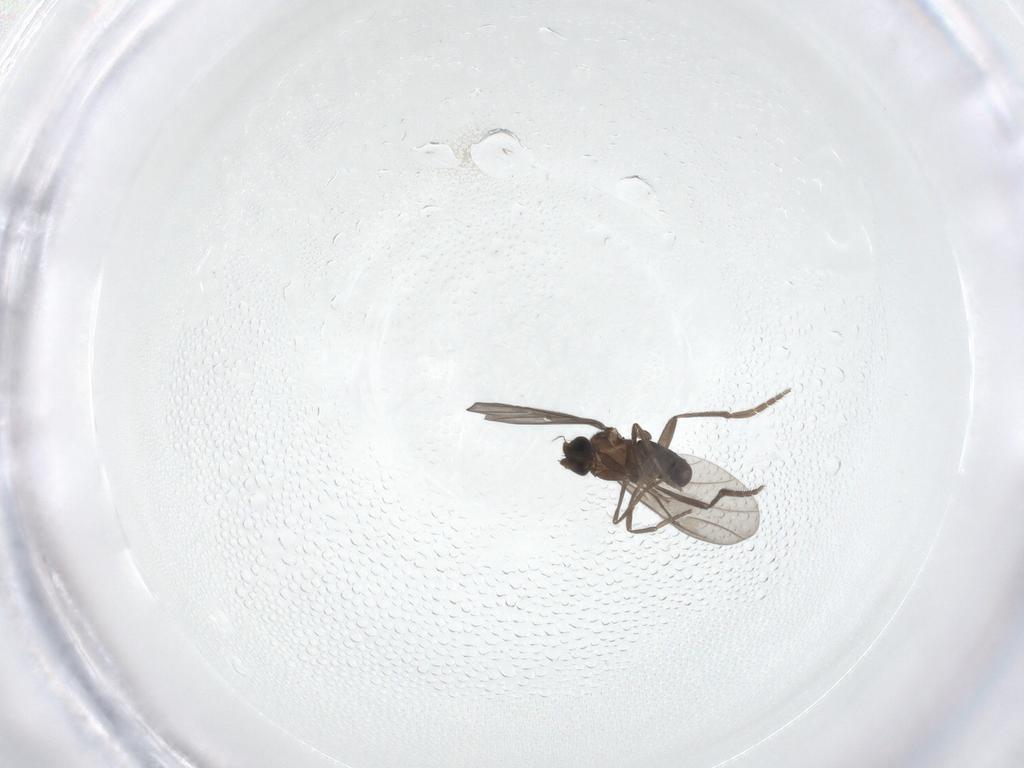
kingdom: Animalia
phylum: Arthropoda
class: Insecta
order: Diptera
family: Phoridae
